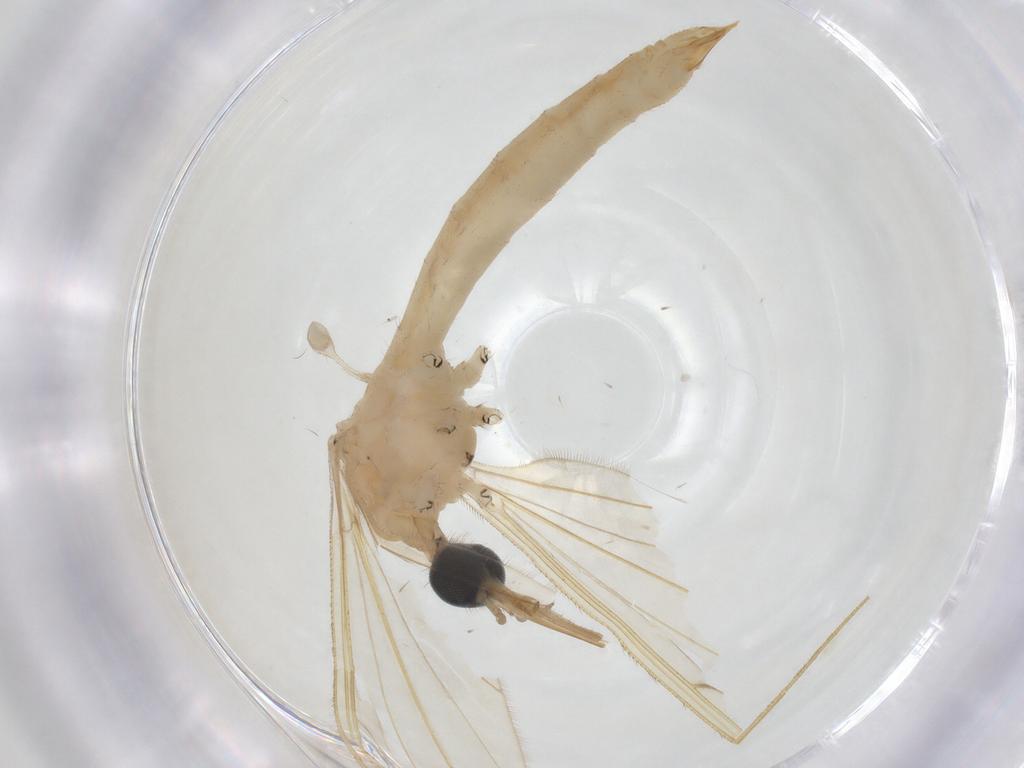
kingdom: Animalia
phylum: Arthropoda
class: Insecta
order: Diptera
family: Limoniidae
